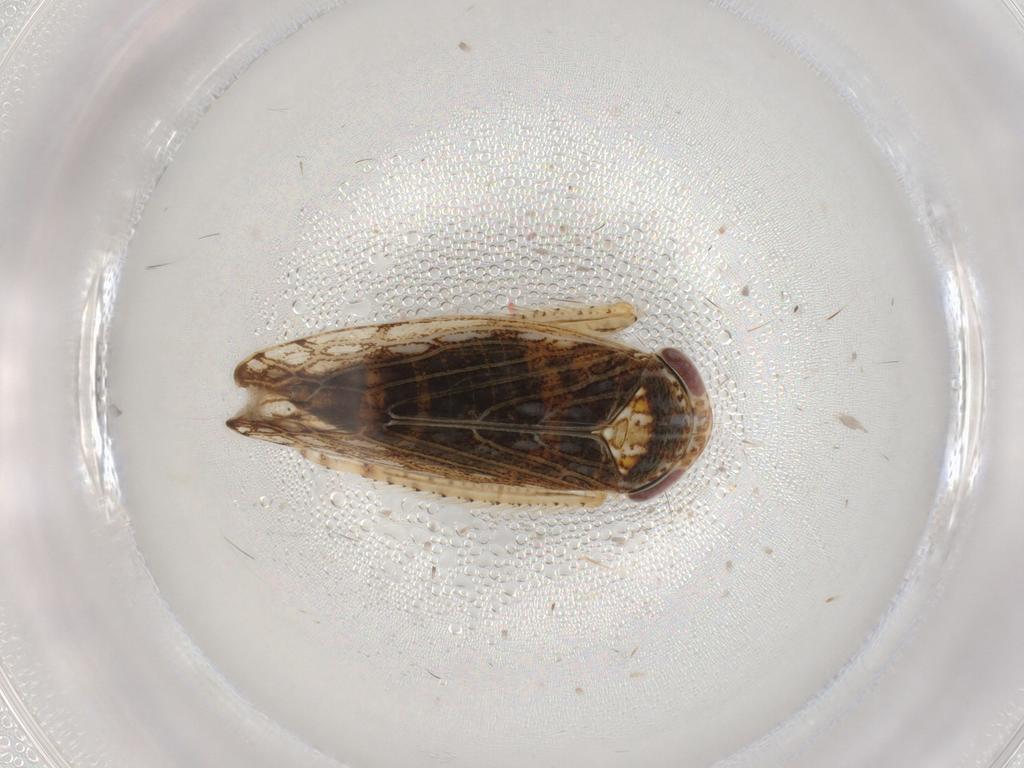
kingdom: Animalia
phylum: Arthropoda
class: Insecta
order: Hemiptera
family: Cicadellidae
